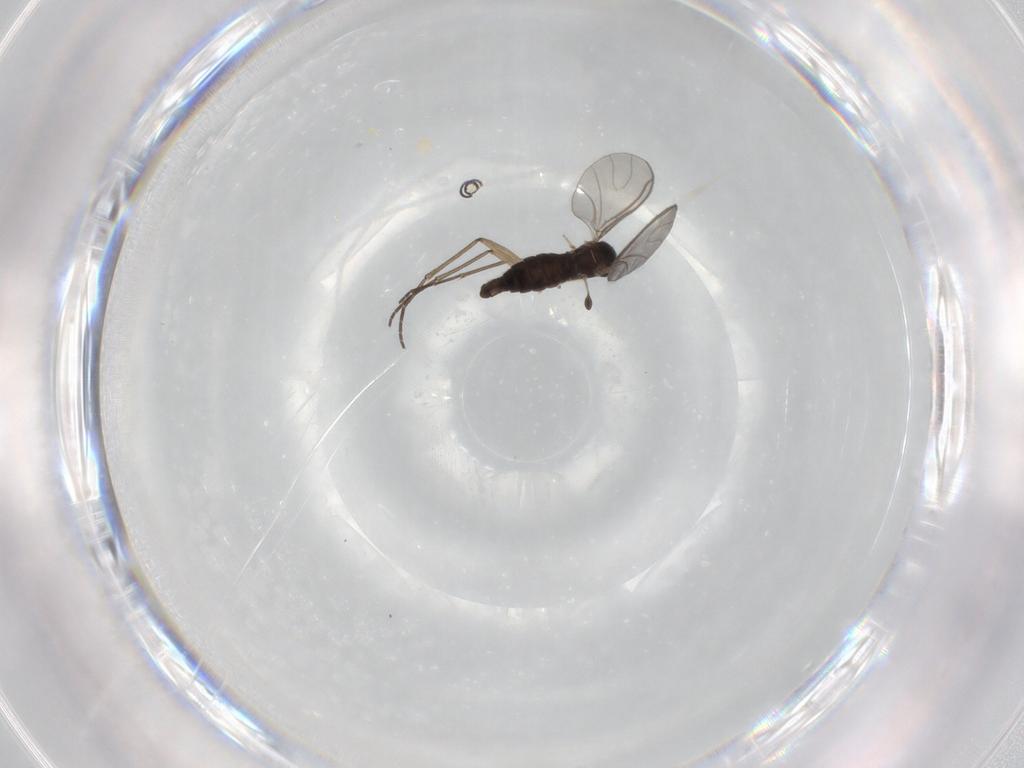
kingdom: Animalia
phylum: Arthropoda
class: Insecta
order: Diptera
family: Sciaridae
